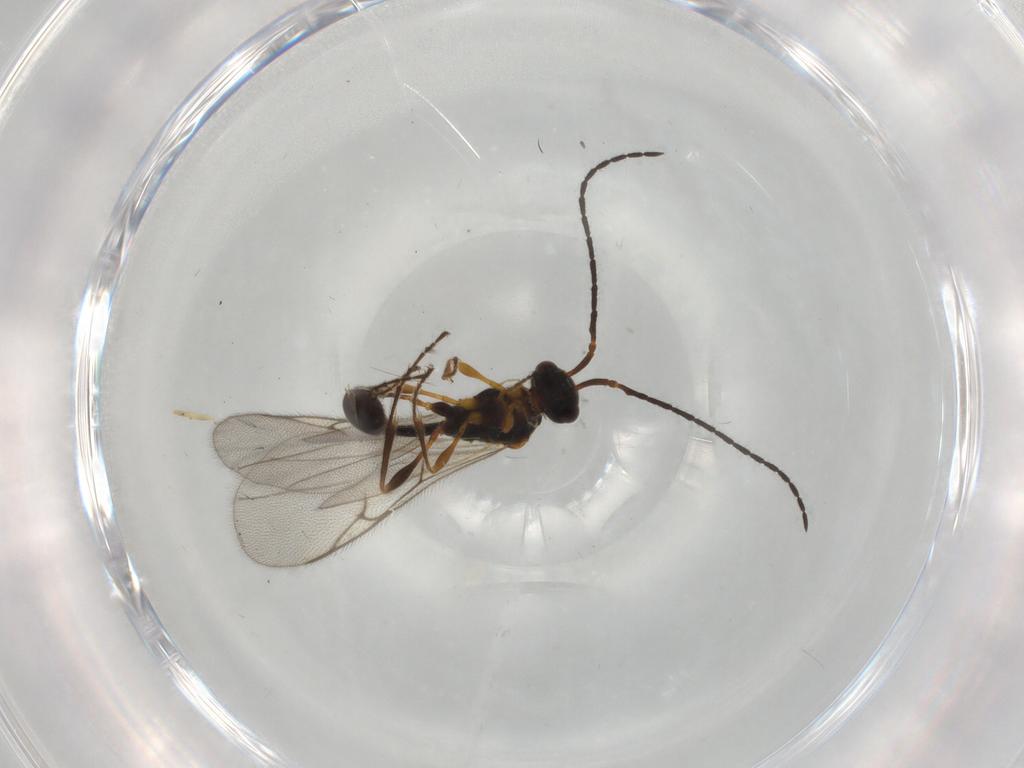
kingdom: Animalia
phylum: Arthropoda
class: Insecta
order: Hymenoptera
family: Diapriidae
